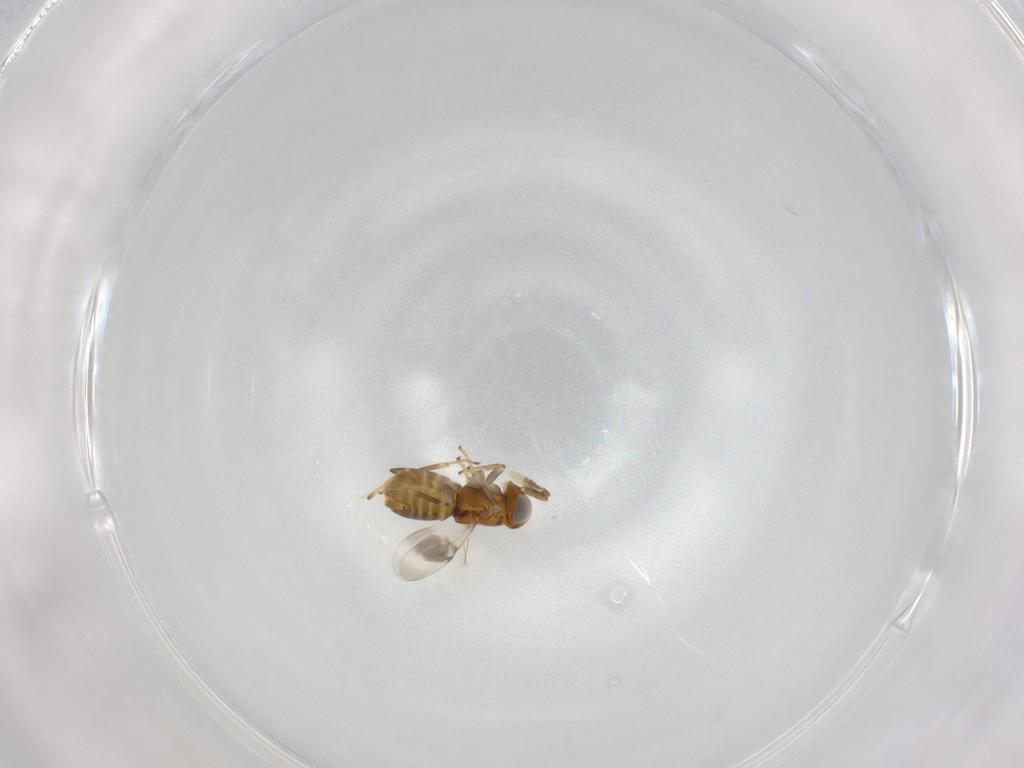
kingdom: Animalia
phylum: Arthropoda
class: Insecta
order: Hymenoptera
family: Encyrtidae
